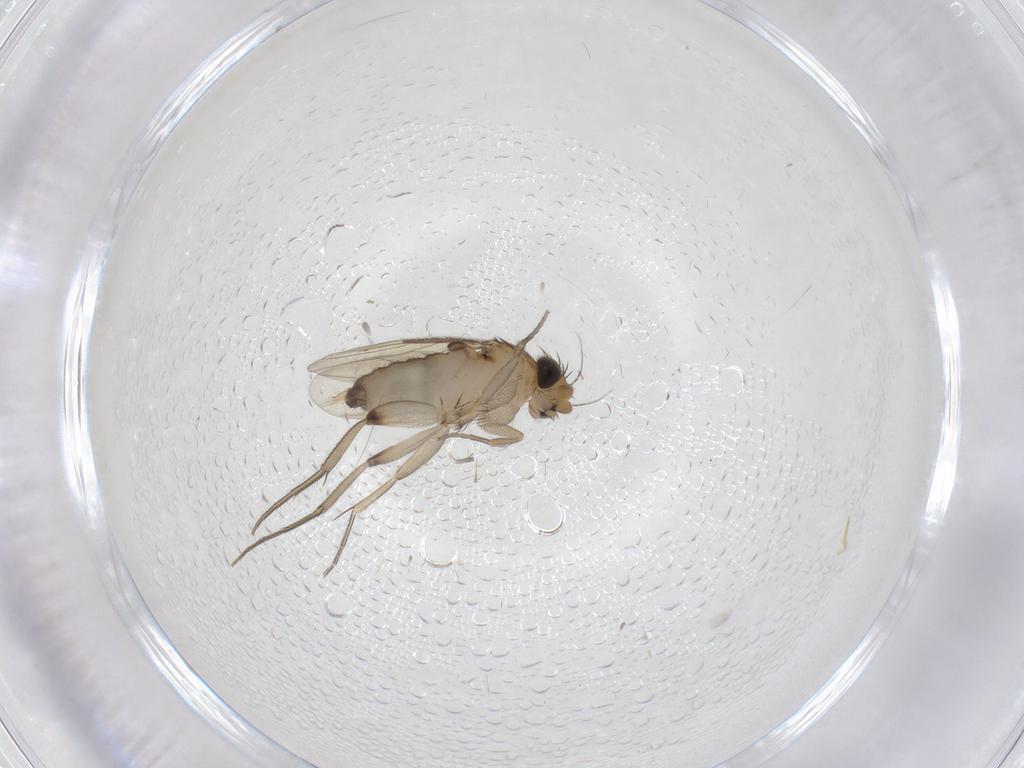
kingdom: Animalia
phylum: Arthropoda
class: Insecta
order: Diptera
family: Phoridae
